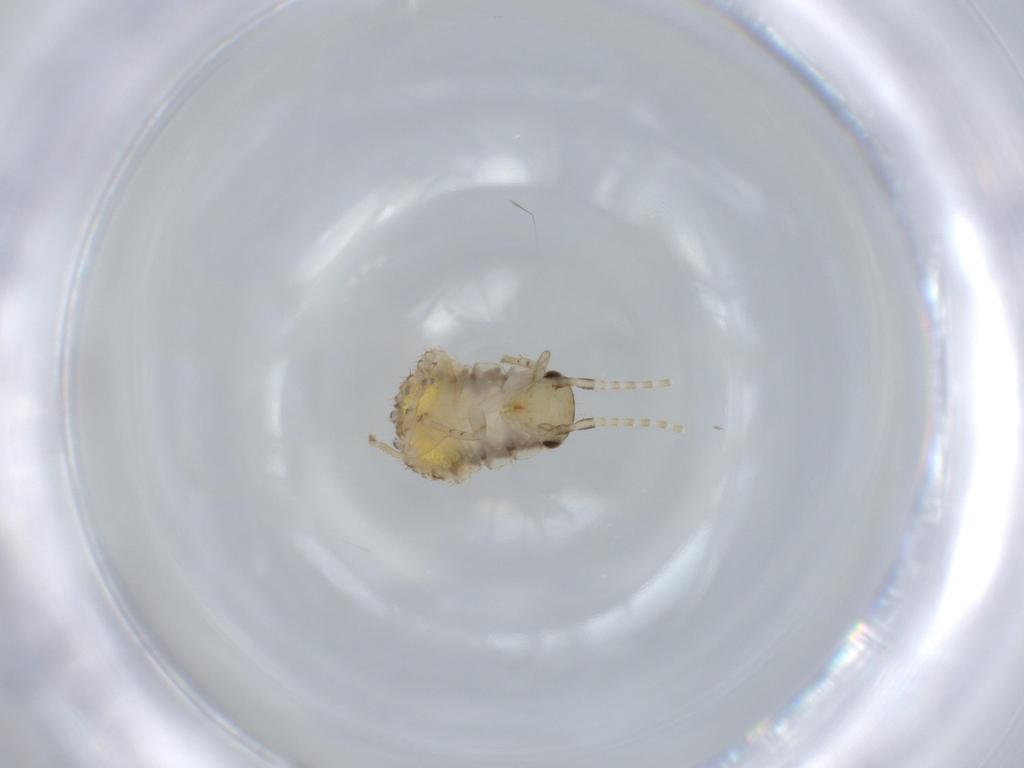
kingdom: Animalia
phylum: Arthropoda
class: Insecta
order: Blattodea
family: Ectobiidae
